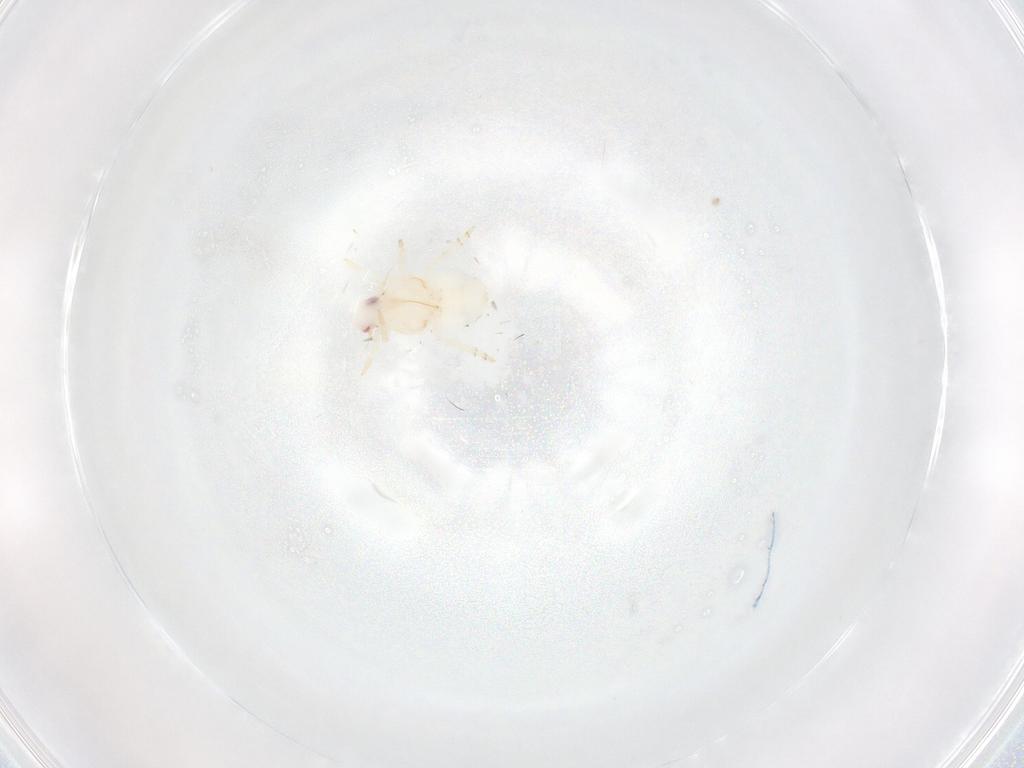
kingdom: Animalia
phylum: Arthropoda
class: Insecta
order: Hemiptera
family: Flatidae
